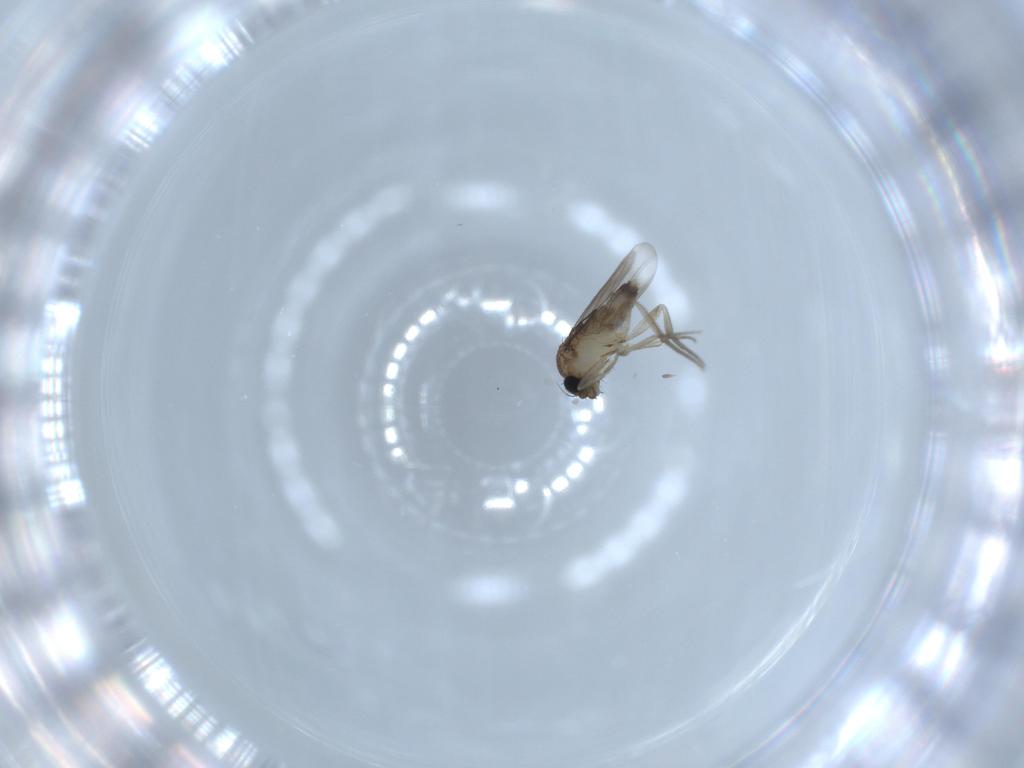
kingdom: Animalia
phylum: Arthropoda
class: Insecta
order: Diptera
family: Phoridae
